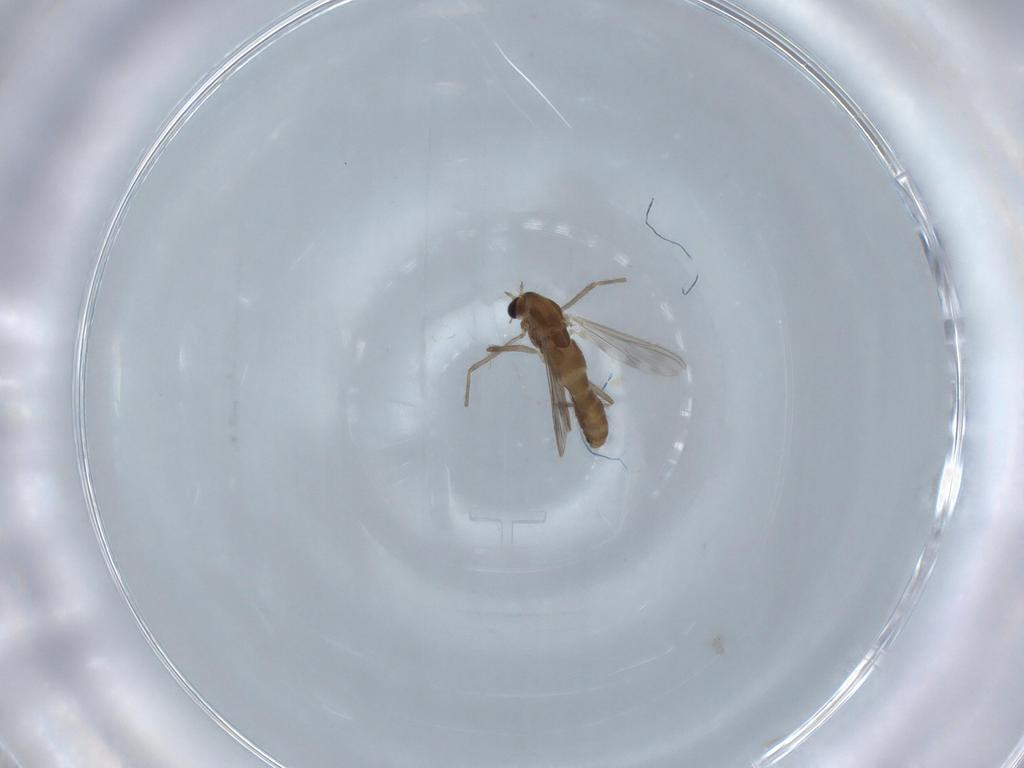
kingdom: Animalia
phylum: Arthropoda
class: Insecta
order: Diptera
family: Chironomidae
